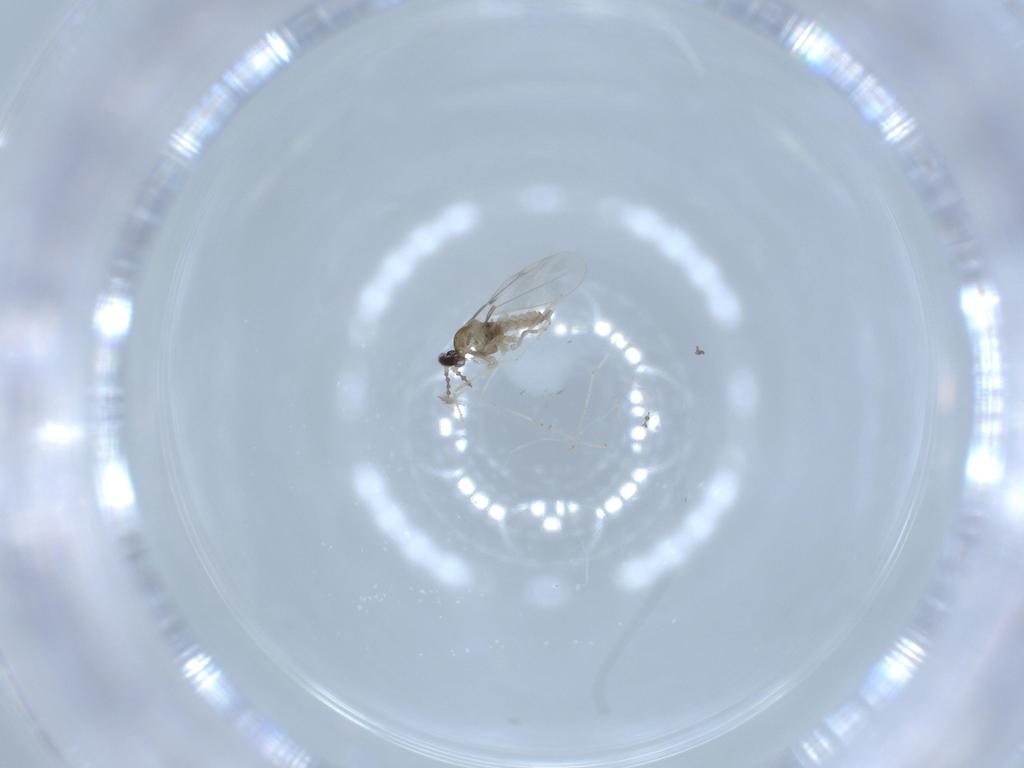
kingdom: Animalia
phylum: Arthropoda
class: Insecta
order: Diptera
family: Cecidomyiidae
